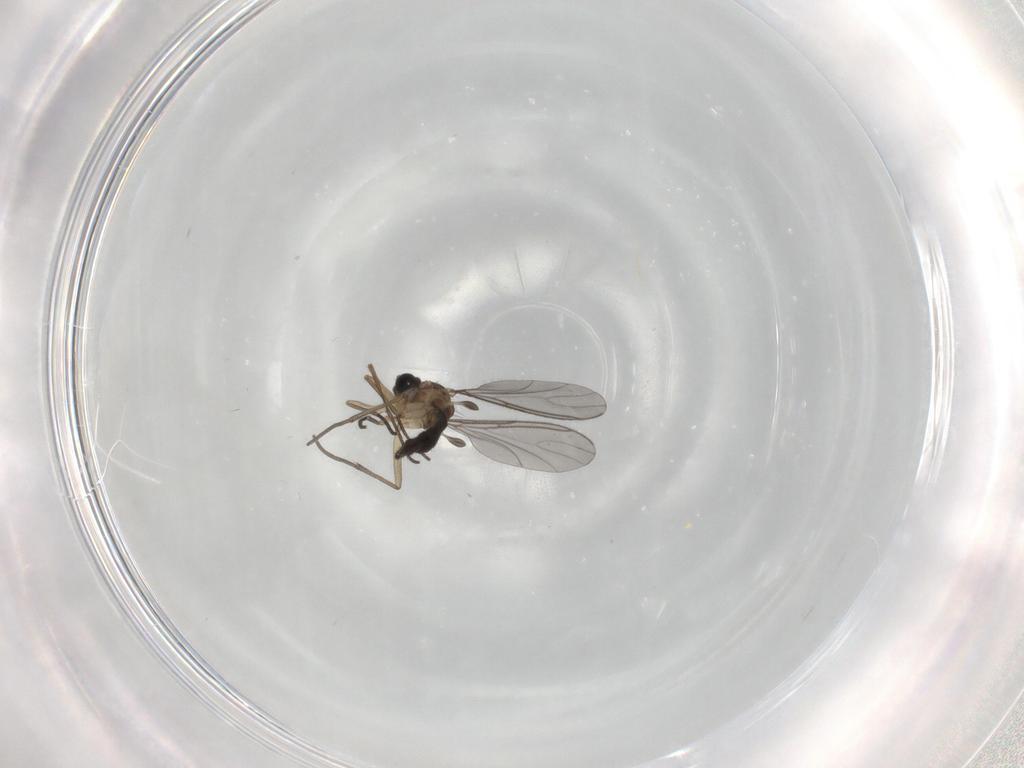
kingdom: Animalia
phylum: Arthropoda
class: Insecta
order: Diptera
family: Sciaridae
